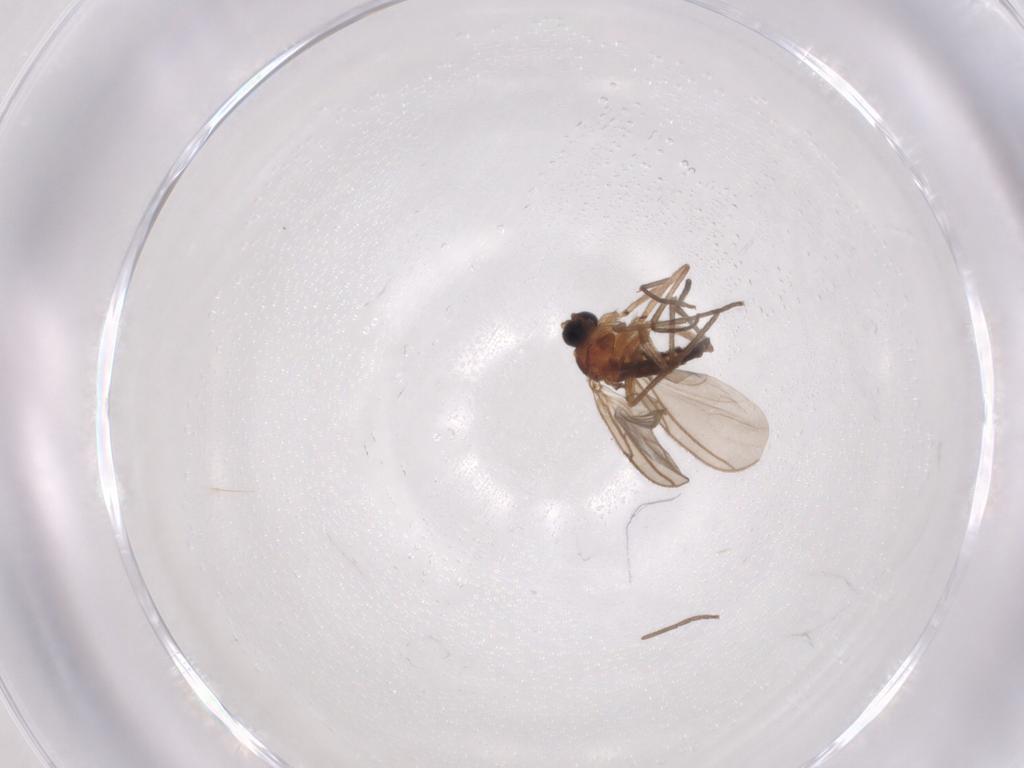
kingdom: Animalia
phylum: Arthropoda
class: Insecta
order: Diptera
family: Sciaridae
